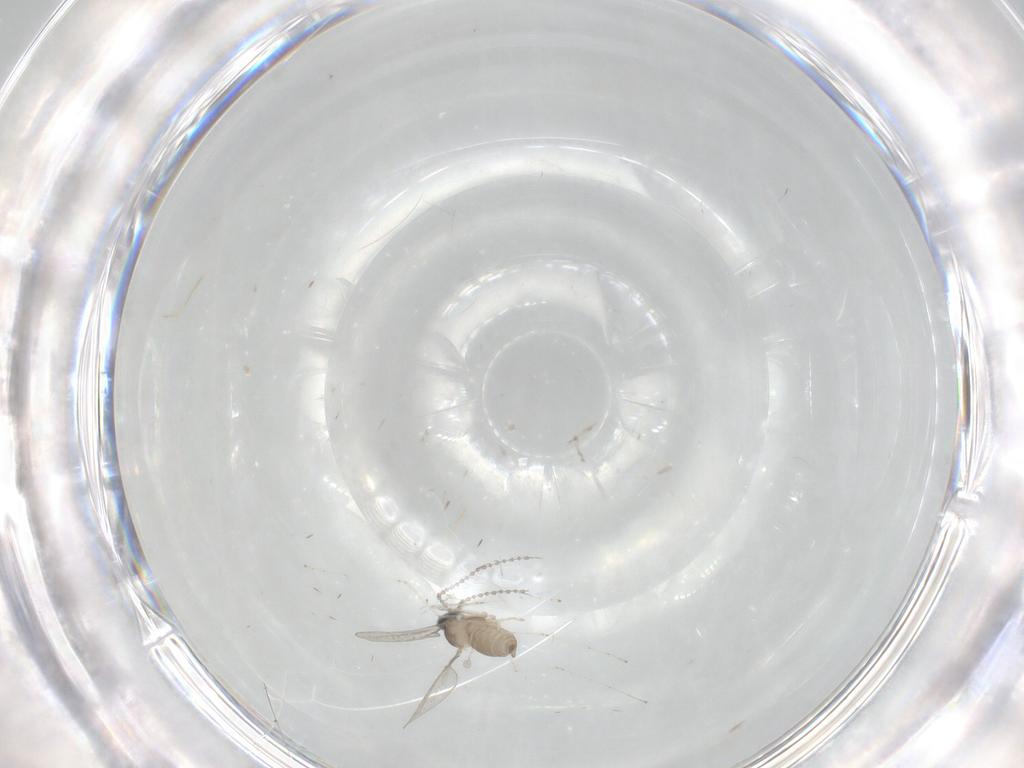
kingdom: Animalia
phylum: Arthropoda
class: Insecta
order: Diptera
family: Cecidomyiidae
